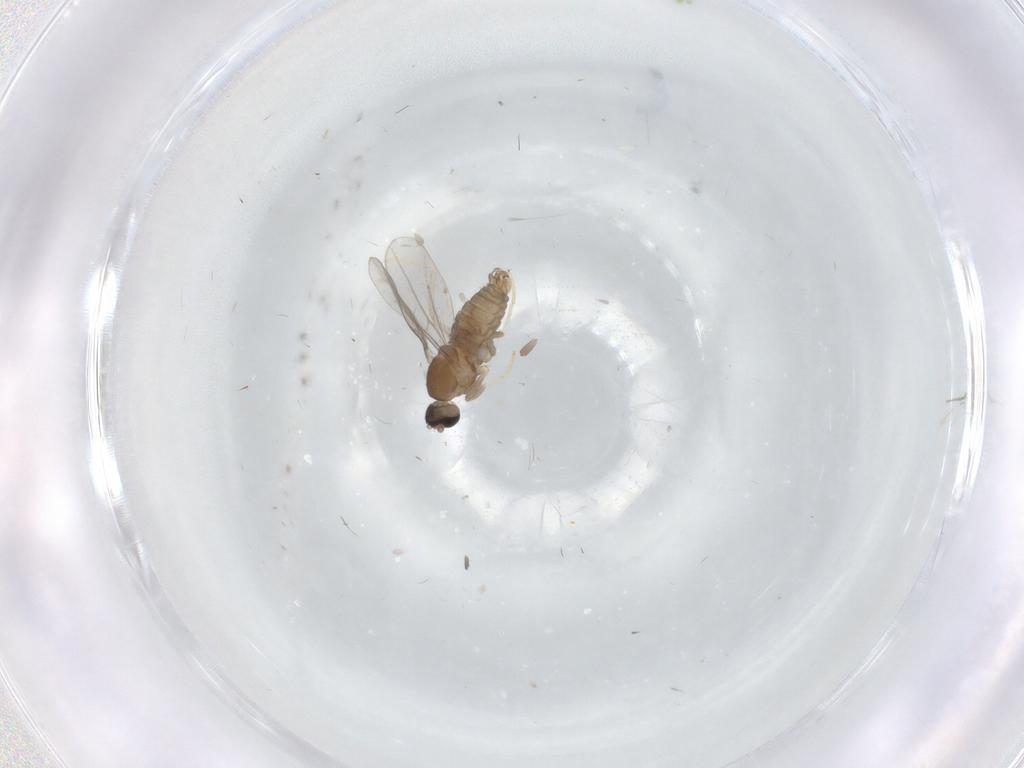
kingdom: Animalia
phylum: Arthropoda
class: Insecta
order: Diptera
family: Cecidomyiidae
